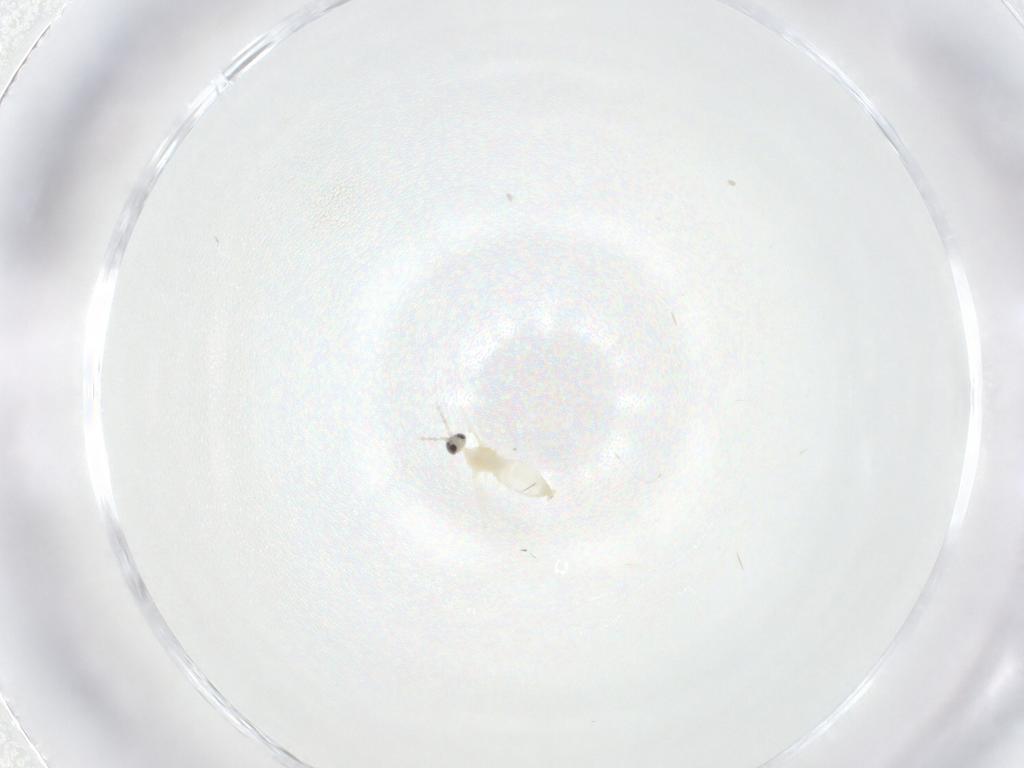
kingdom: Animalia
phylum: Arthropoda
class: Insecta
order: Diptera
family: Cecidomyiidae
